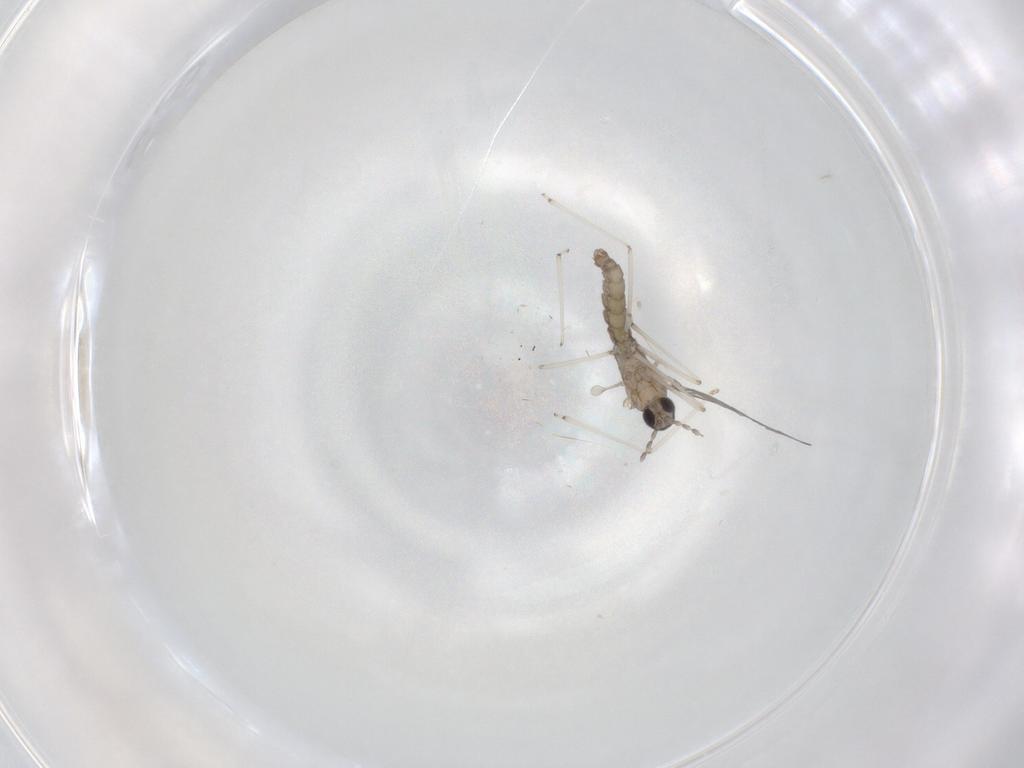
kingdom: Animalia
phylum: Arthropoda
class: Insecta
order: Diptera
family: Cecidomyiidae
